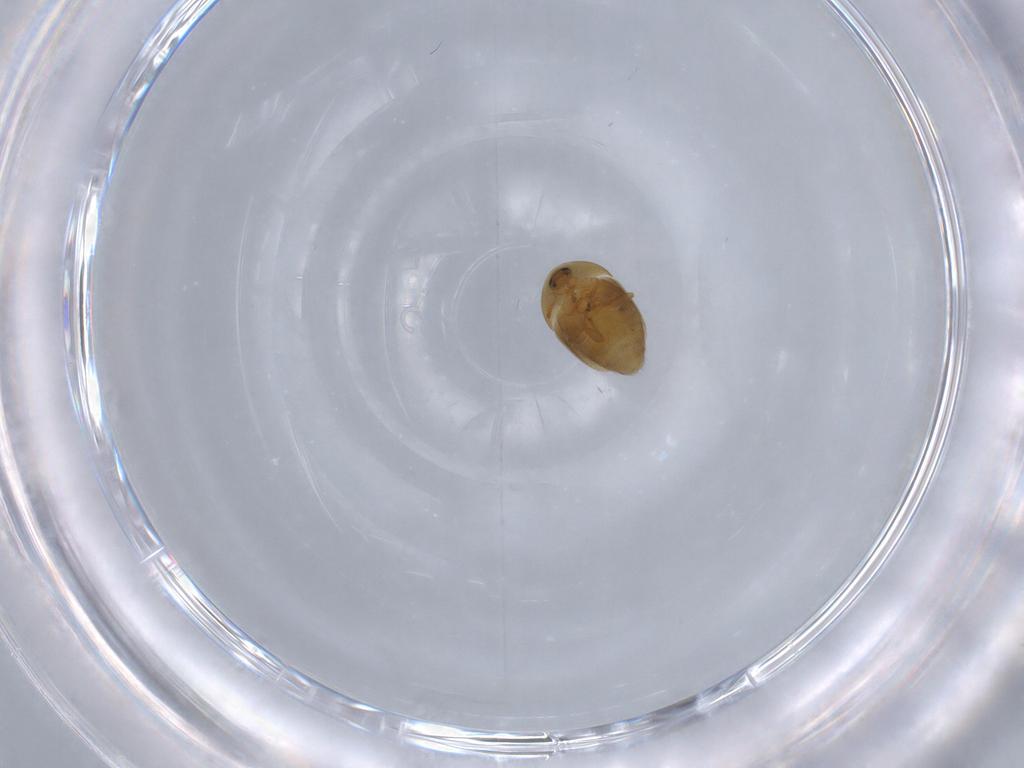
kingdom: Animalia
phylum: Arthropoda
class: Insecta
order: Coleoptera
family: Corylophidae
